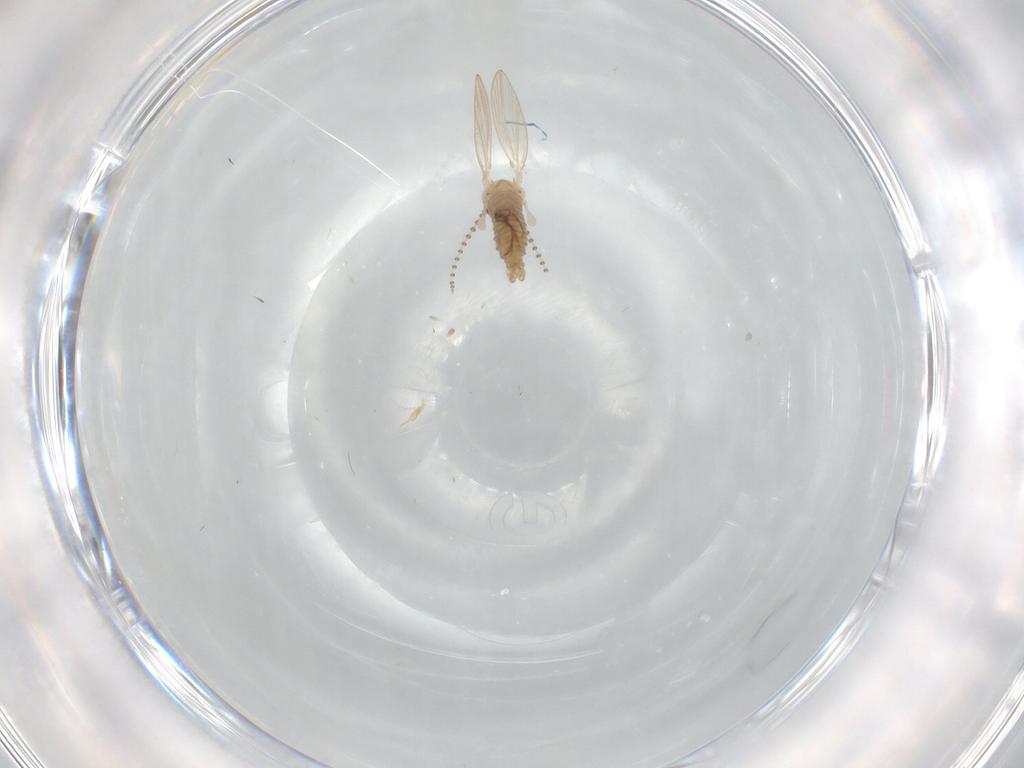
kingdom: Animalia
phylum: Arthropoda
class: Insecta
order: Diptera
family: Psychodidae
